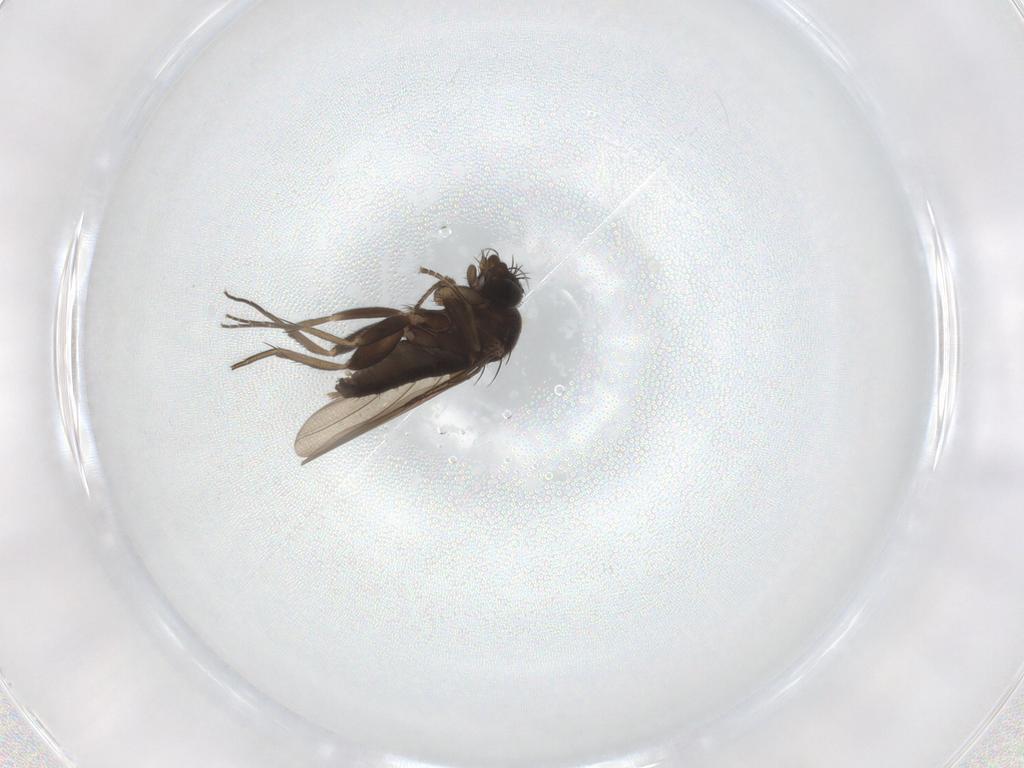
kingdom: Animalia
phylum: Arthropoda
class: Insecta
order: Diptera
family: Phoridae
